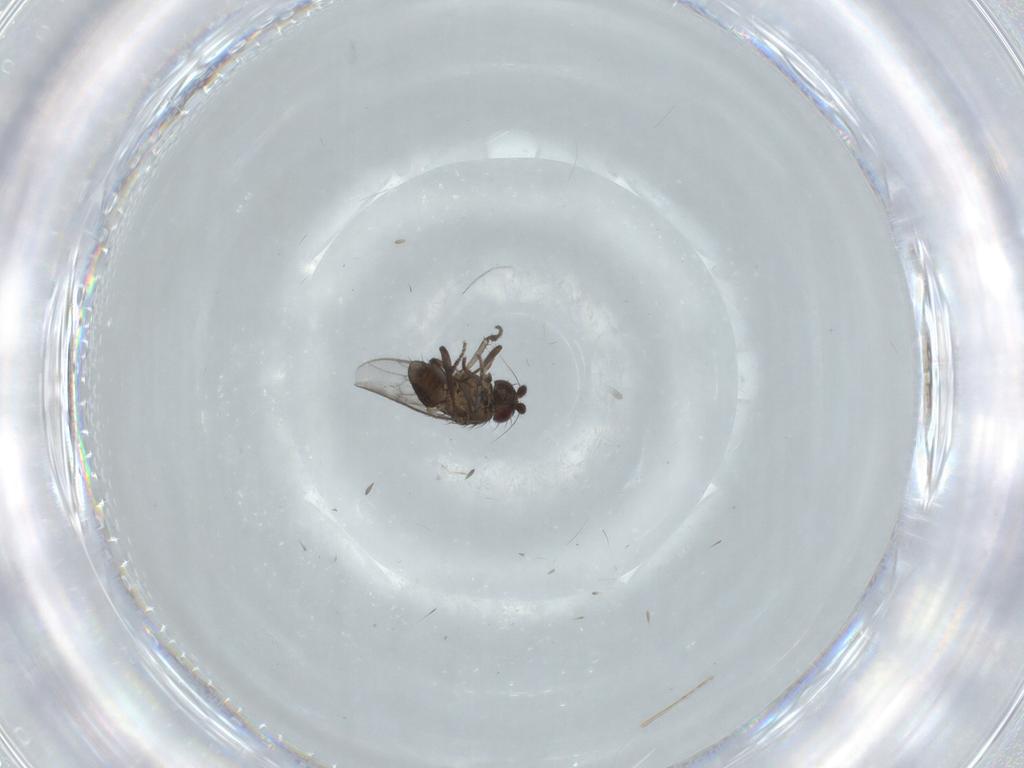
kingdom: Animalia
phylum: Arthropoda
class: Insecta
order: Diptera
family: Sphaeroceridae
